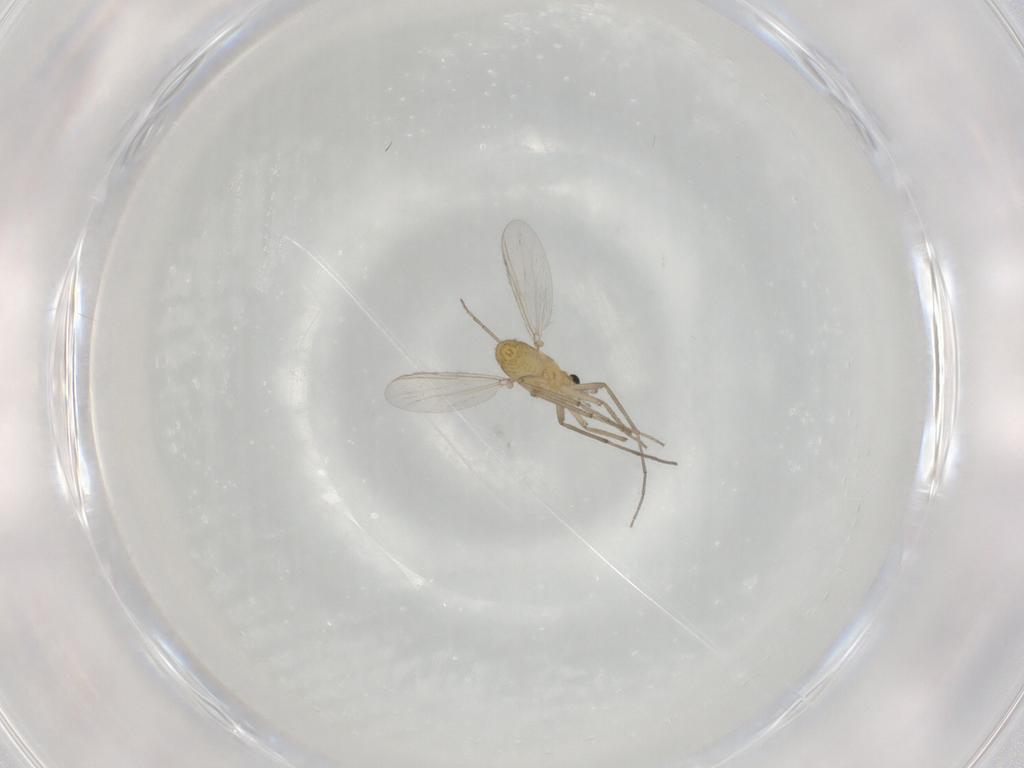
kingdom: Animalia
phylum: Arthropoda
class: Insecta
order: Diptera
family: Chironomidae
